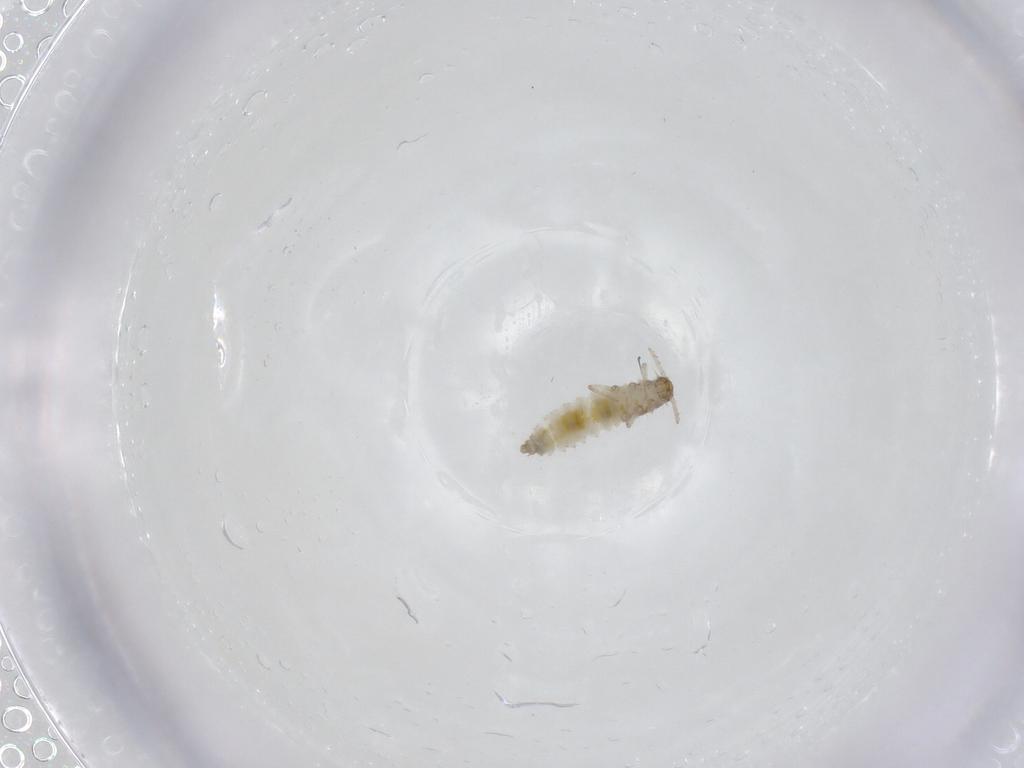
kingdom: Animalia
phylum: Arthropoda
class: Insecta
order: Coleoptera
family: Staphylinidae
